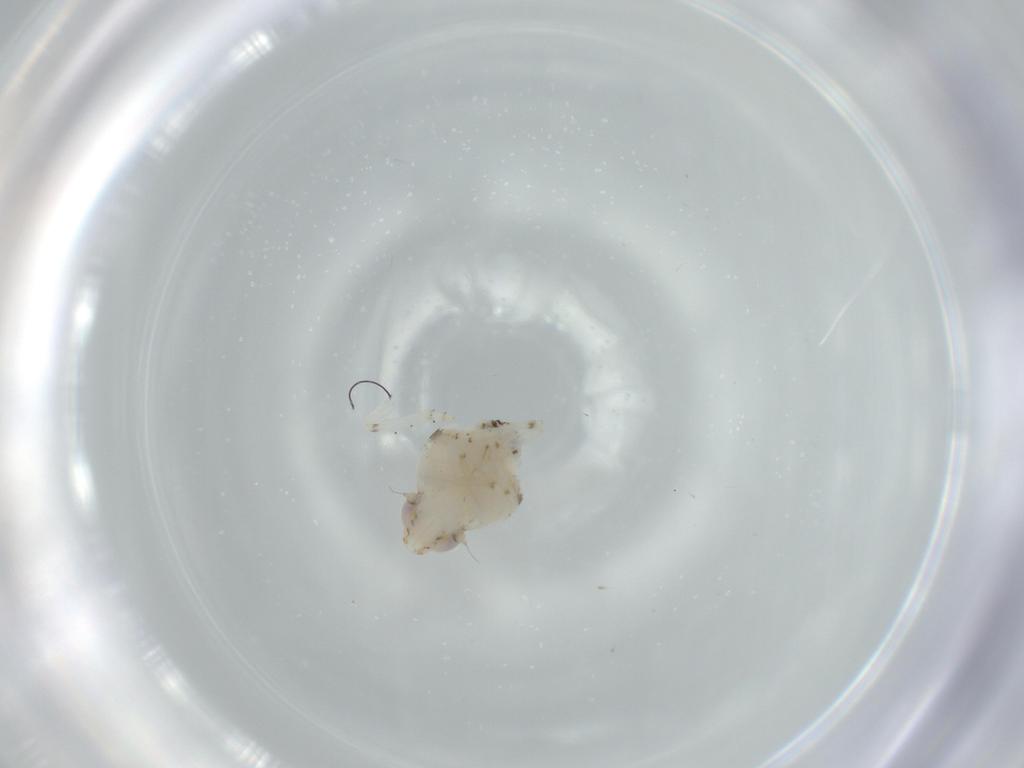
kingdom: Animalia
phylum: Arthropoda
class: Insecta
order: Hemiptera
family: Nogodinidae
